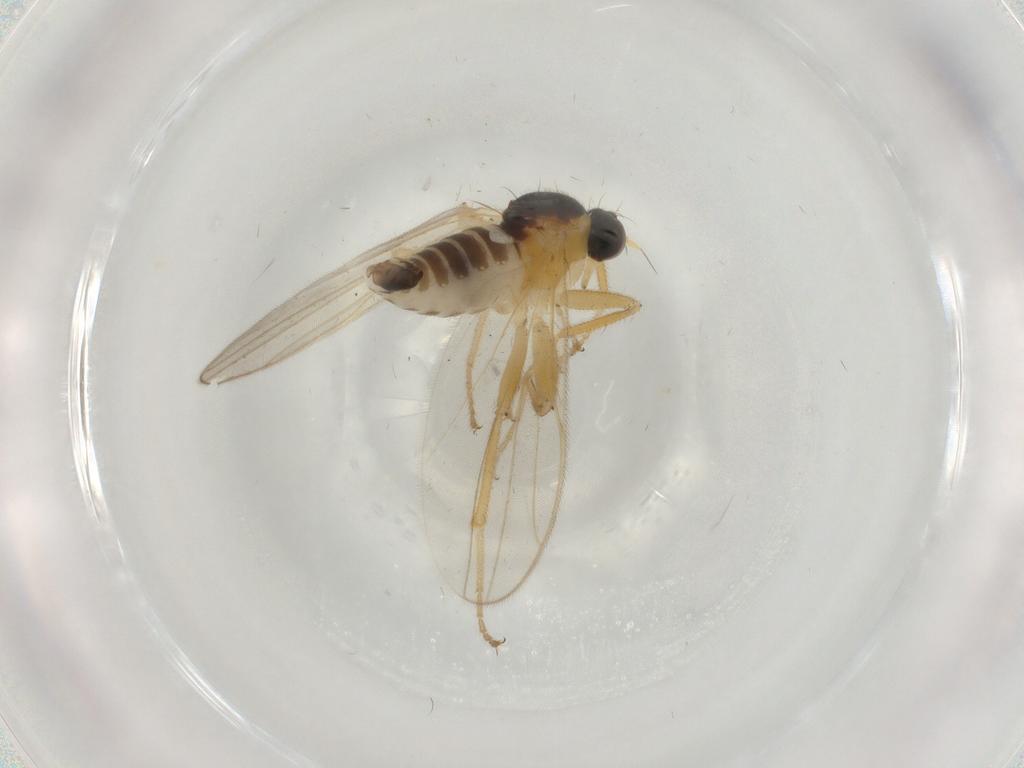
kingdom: Animalia
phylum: Arthropoda
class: Insecta
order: Diptera
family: Hybotidae
